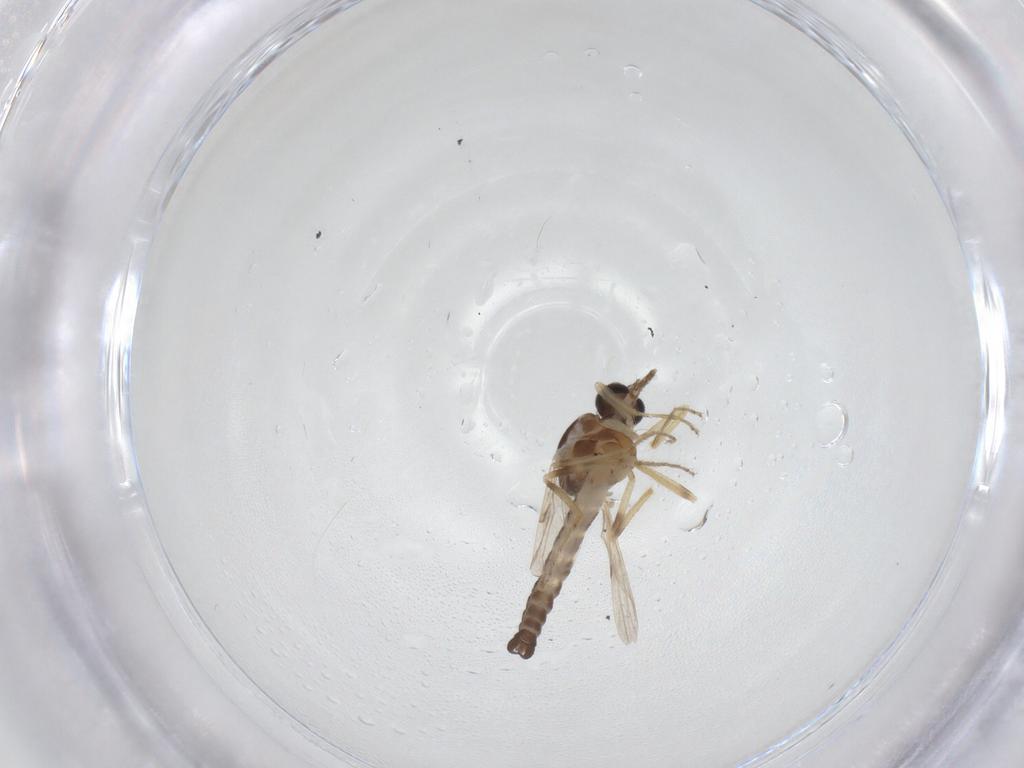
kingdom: Animalia
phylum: Arthropoda
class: Insecta
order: Diptera
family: Ceratopogonidae
